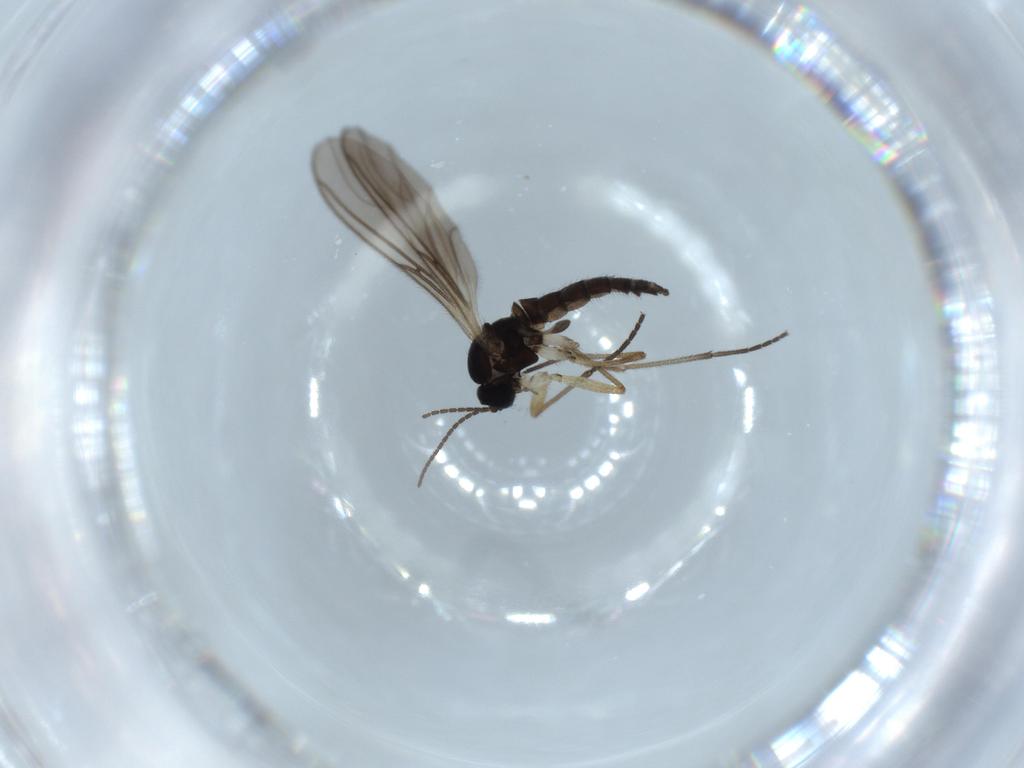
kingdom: Animalia
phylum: Arthropoda
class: Insecta
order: Diptera
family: Sciaridae
